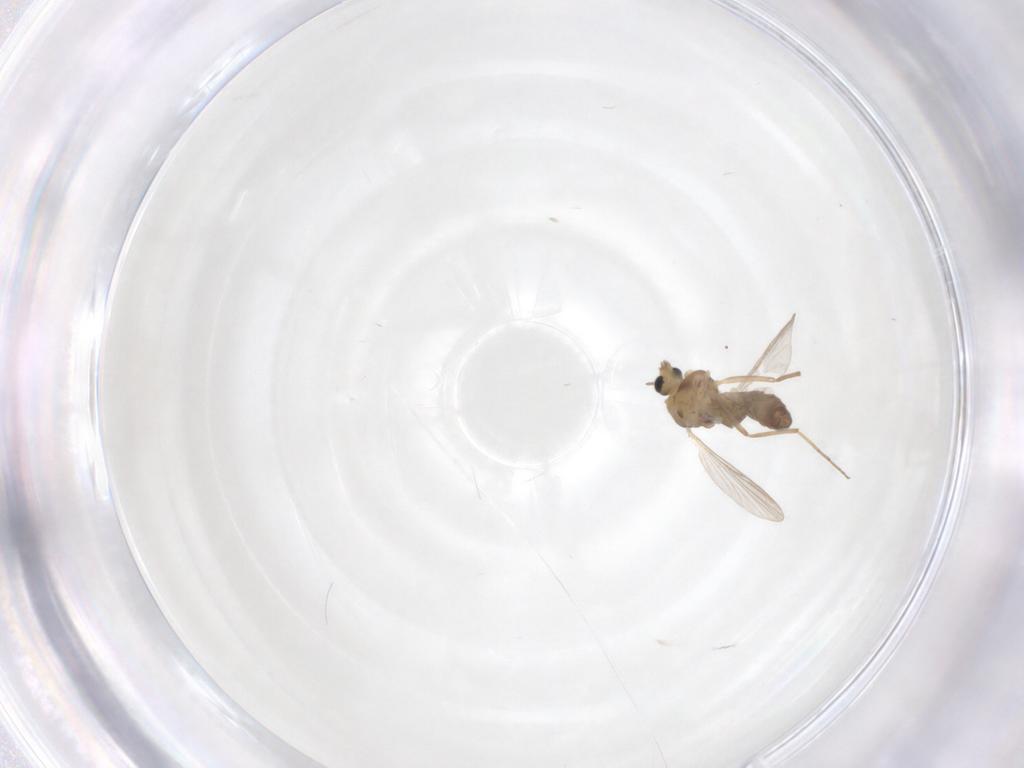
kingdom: Animalia
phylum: Arthropoda
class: Insecta
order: Diptera
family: Chironomidae
